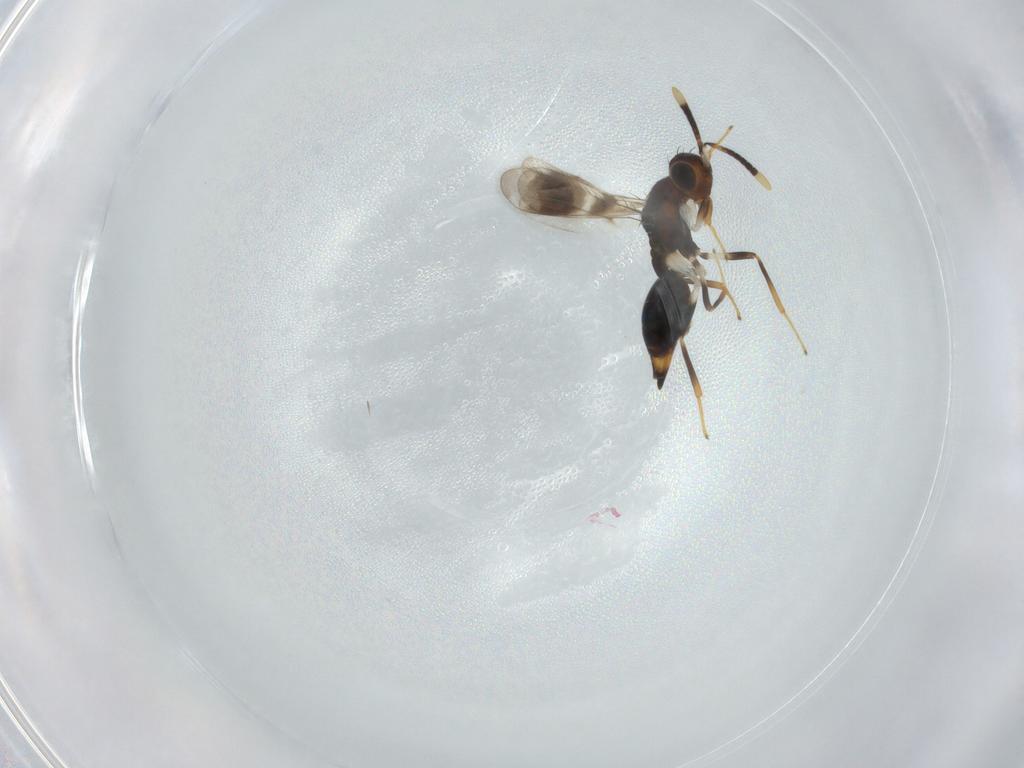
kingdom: Animalia
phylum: Arthropoda
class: Insecta
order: Hymenoptera
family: Diparidae
